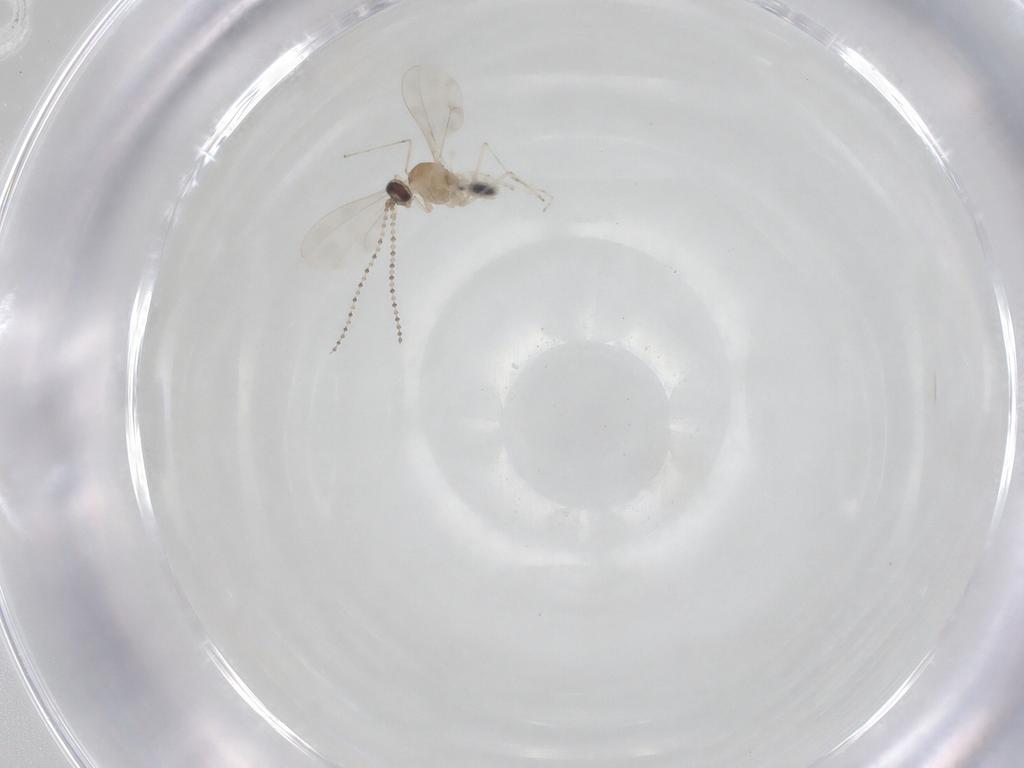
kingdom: Animalia
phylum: Arthropoda
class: Insecta
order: Diptera
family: Cecidomyiidae
